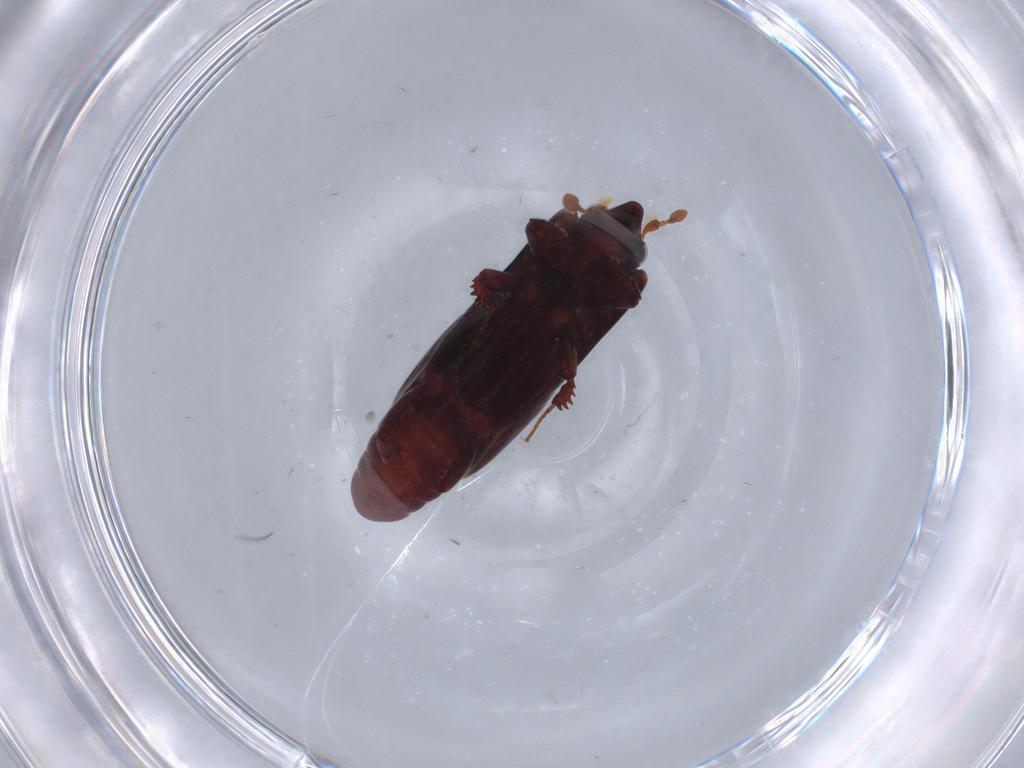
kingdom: Animalia
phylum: Arthropoda
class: Insecta
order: Coleoptera
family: Histeridae
